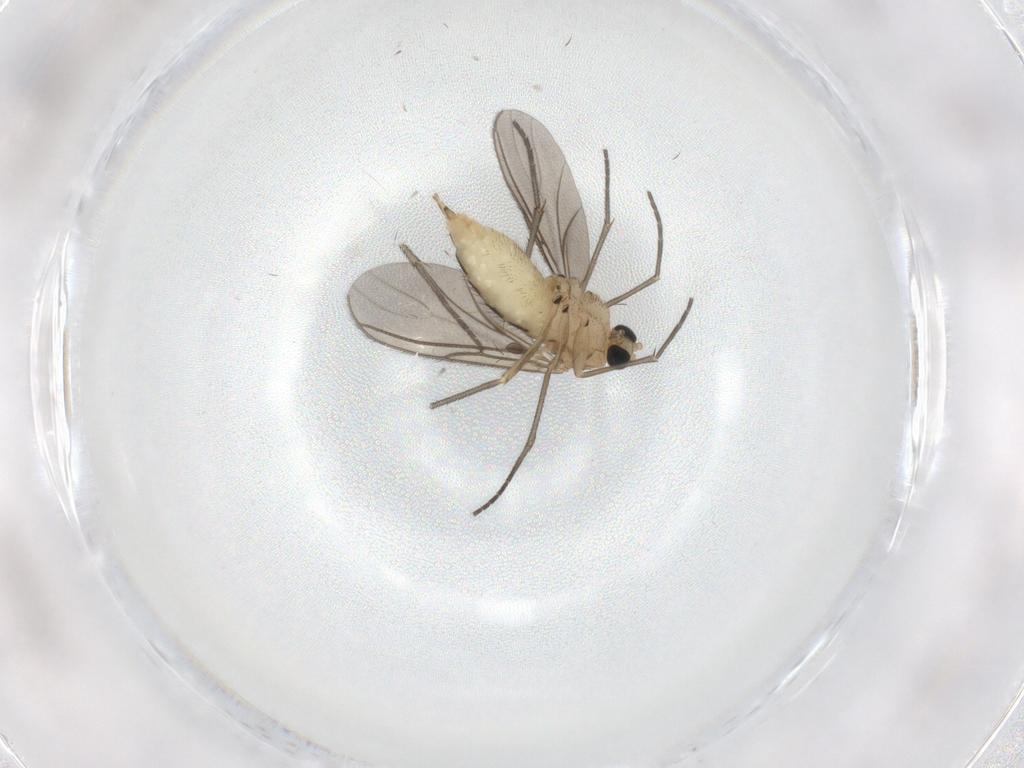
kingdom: Animalia
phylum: Arthropoda
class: Insecta
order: Diptera
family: Sciaridae
